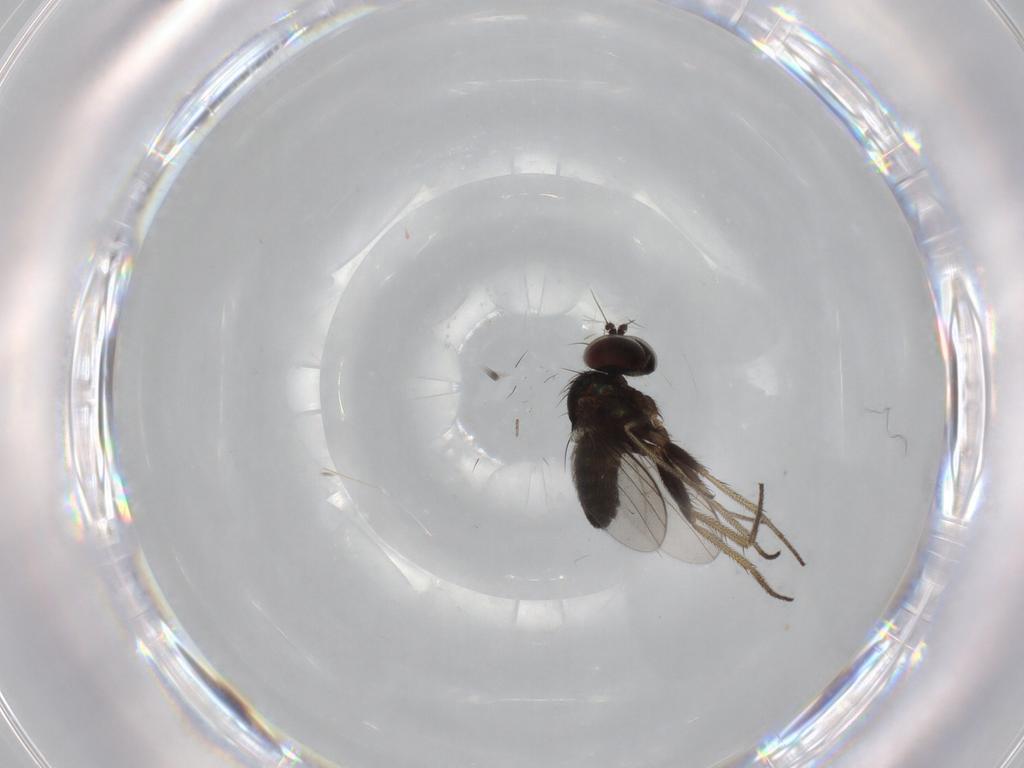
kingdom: Animalia
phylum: Arthropoda
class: Insecta
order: Diptera
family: Dolichopodidae
